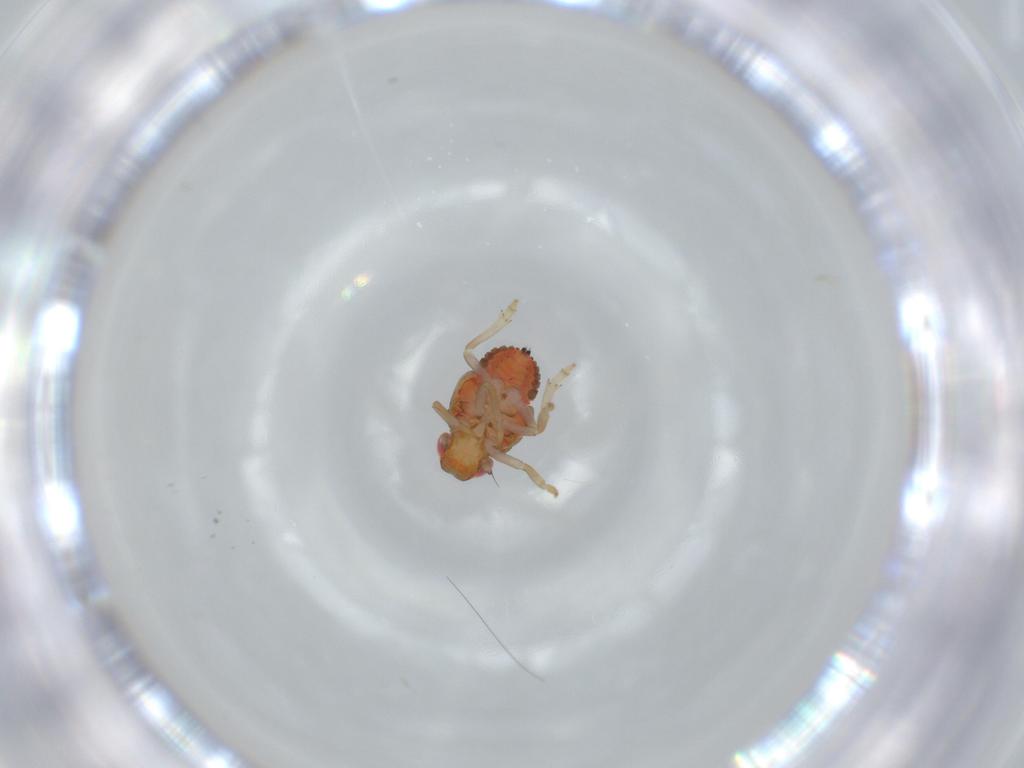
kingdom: Animalia
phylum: Arthropoda
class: Insecta
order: Hemiptera
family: Issidae
